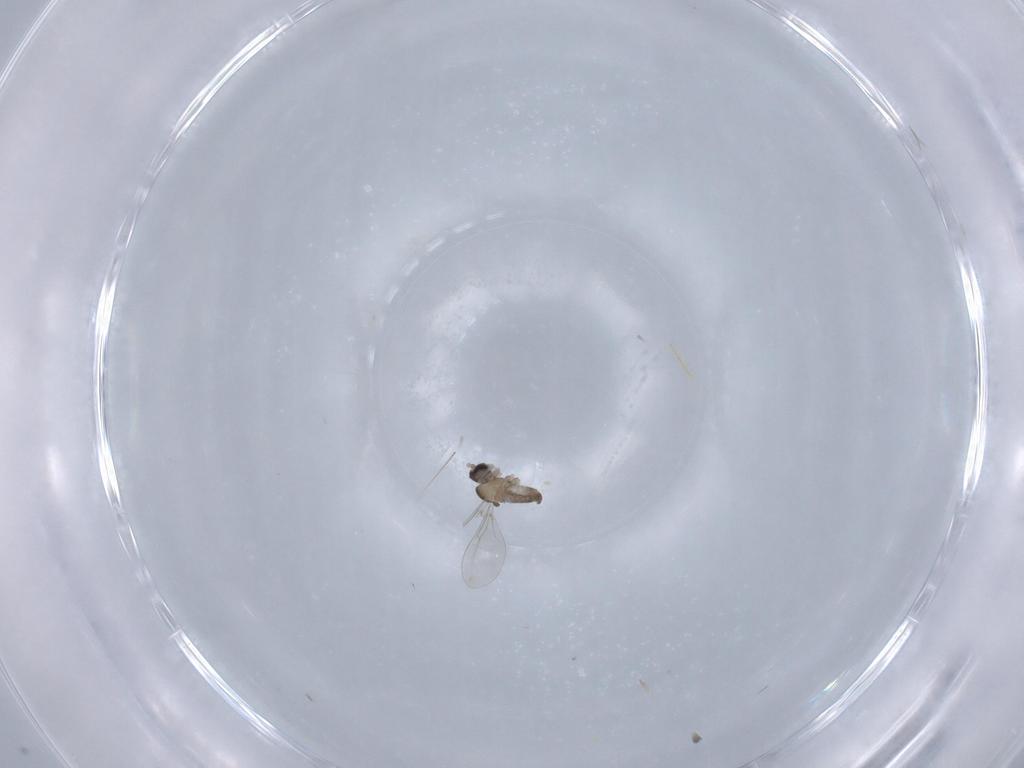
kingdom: Animalia
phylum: Arthropoda
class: Insecta
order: Diptera
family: Cecidomyiidae
